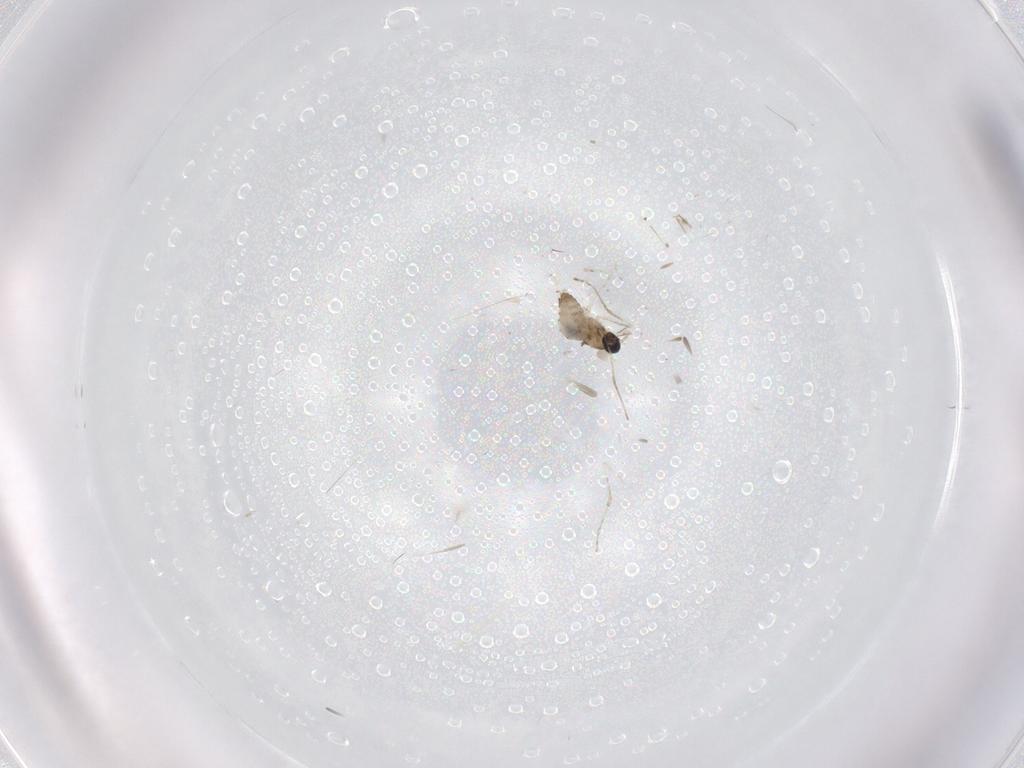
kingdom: Animalia
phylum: Arthropoda
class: Insecta
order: Diptera
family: Cecidomyiidae
